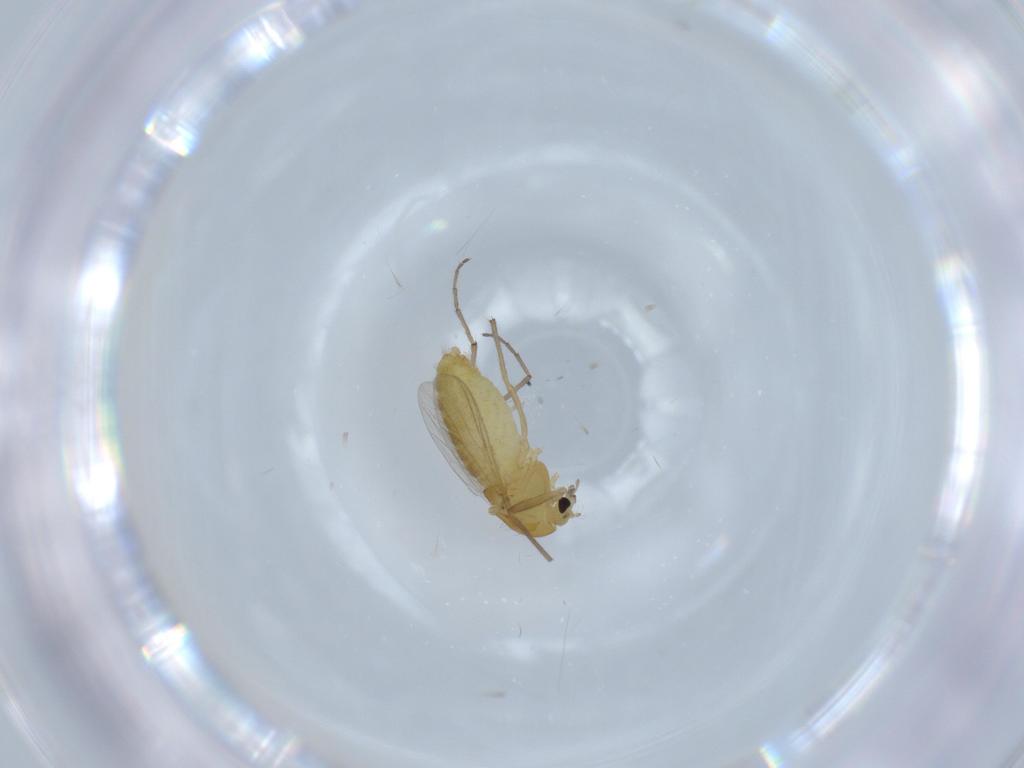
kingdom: Animalia
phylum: Arthropoda
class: Insecta
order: Diptera
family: Chironomidae
